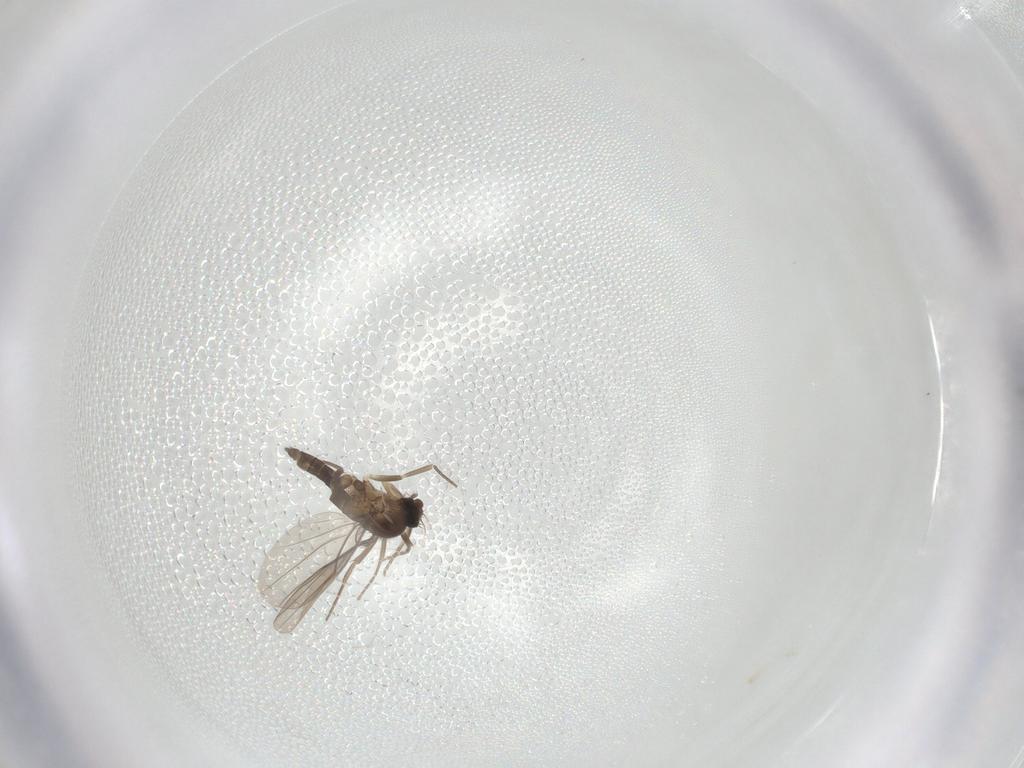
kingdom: Animalia
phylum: Arthropoda
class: Insecta
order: Diptera
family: Phoridae
